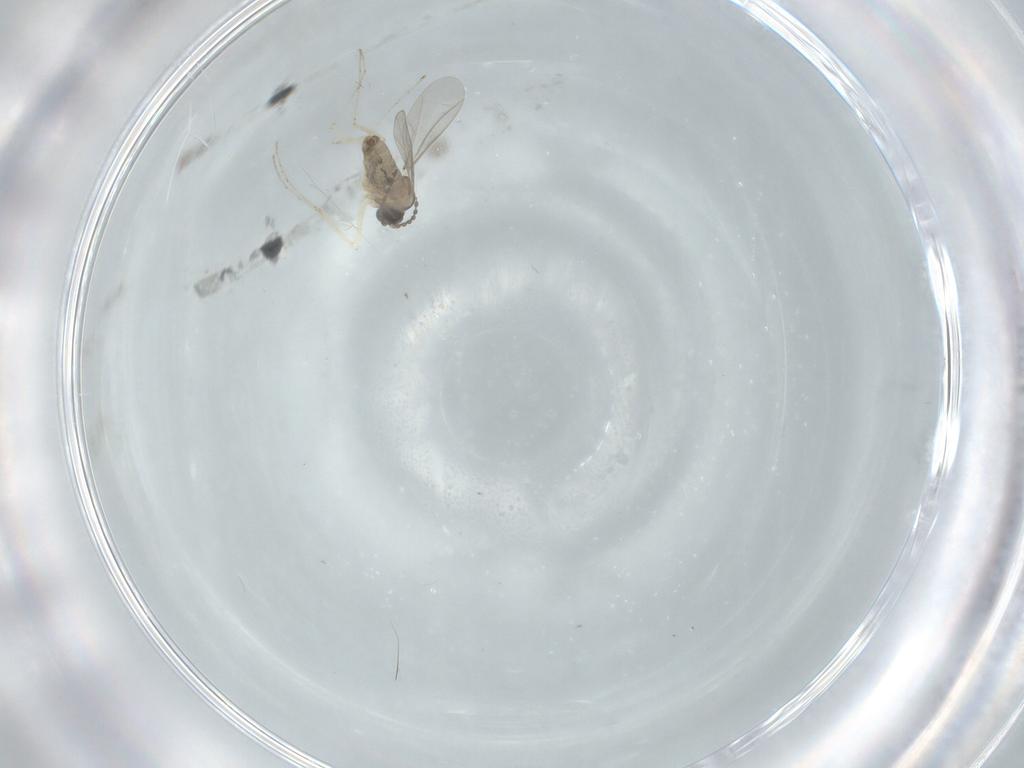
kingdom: Animalia
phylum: Arthropoda
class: Insecta
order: Diptera
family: Cecidomyiidae
